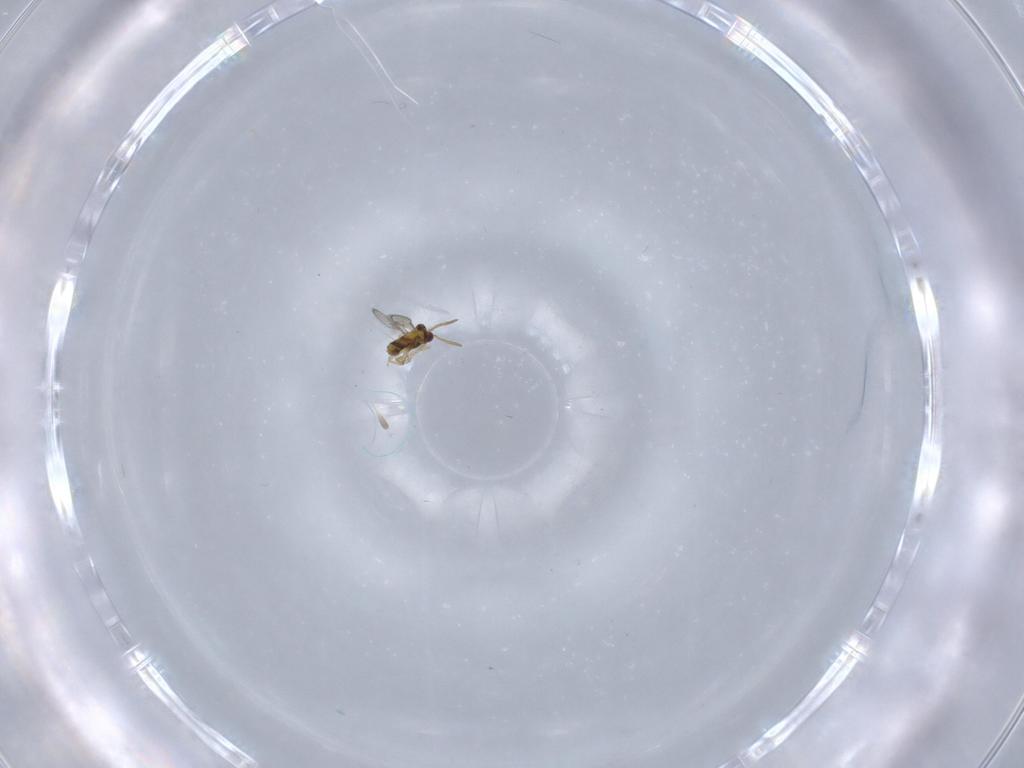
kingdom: Animalia
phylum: Arthropoda
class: Insecta
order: Hymenoptera
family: Aphelinidae
